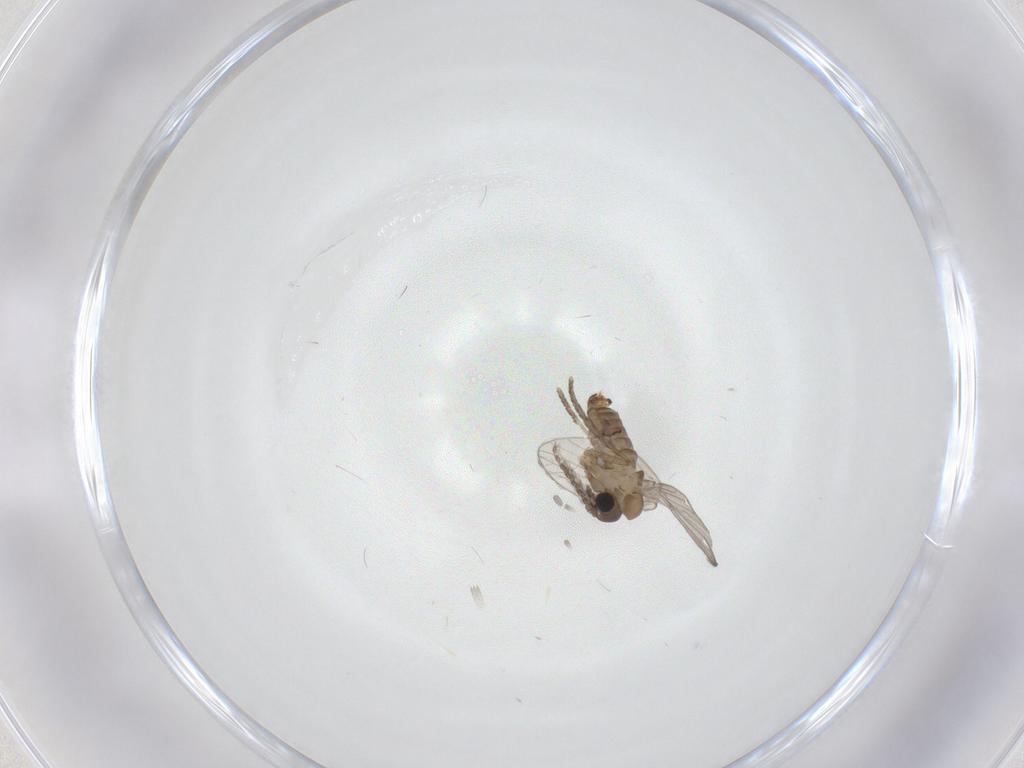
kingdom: Animalia
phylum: Arthropoda
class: Insecta
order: Diptera
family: Psychodidae
